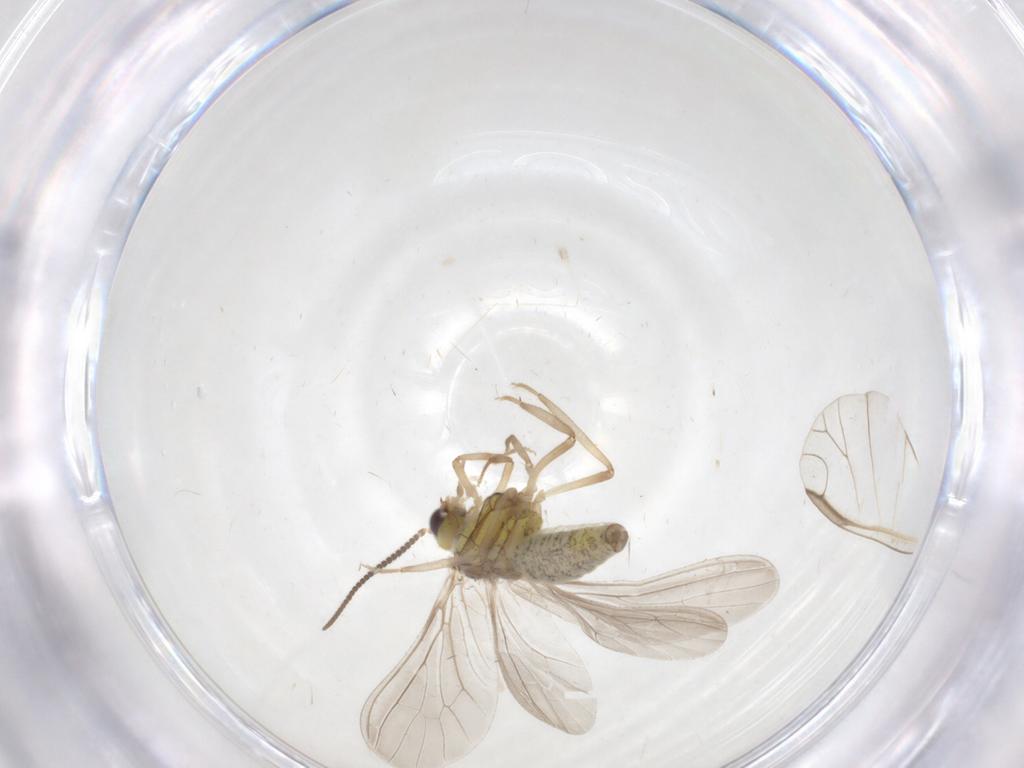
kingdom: Animalia
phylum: Arthropoda
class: Insecta
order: Neuroptera
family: Coniopterygidae
